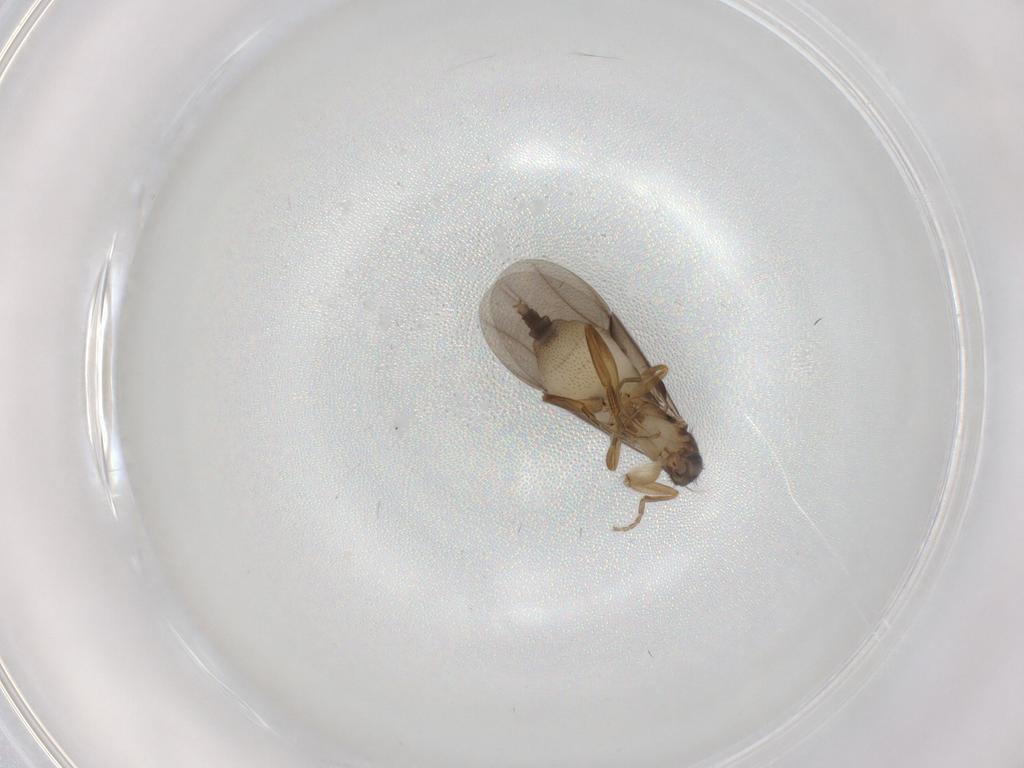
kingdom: Animalia
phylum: Arthropoda
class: Insecta
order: Diptera
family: Phoridae
